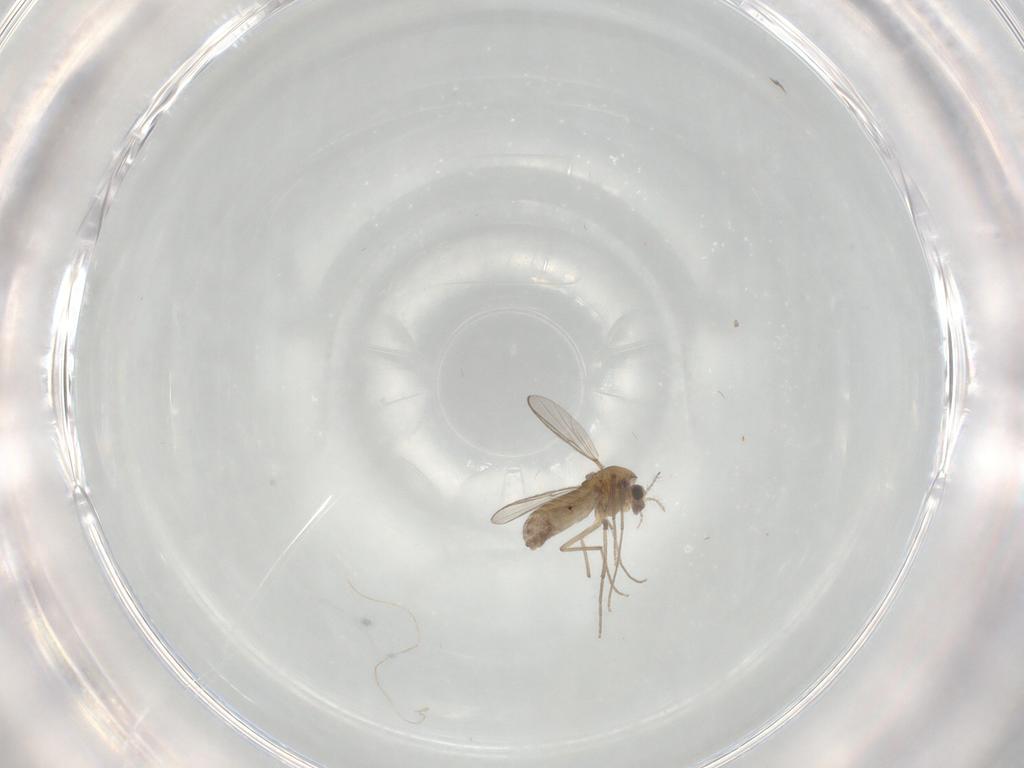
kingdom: Animalia
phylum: Arthropoda
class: Insecta
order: Diptera
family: Chironomidae
